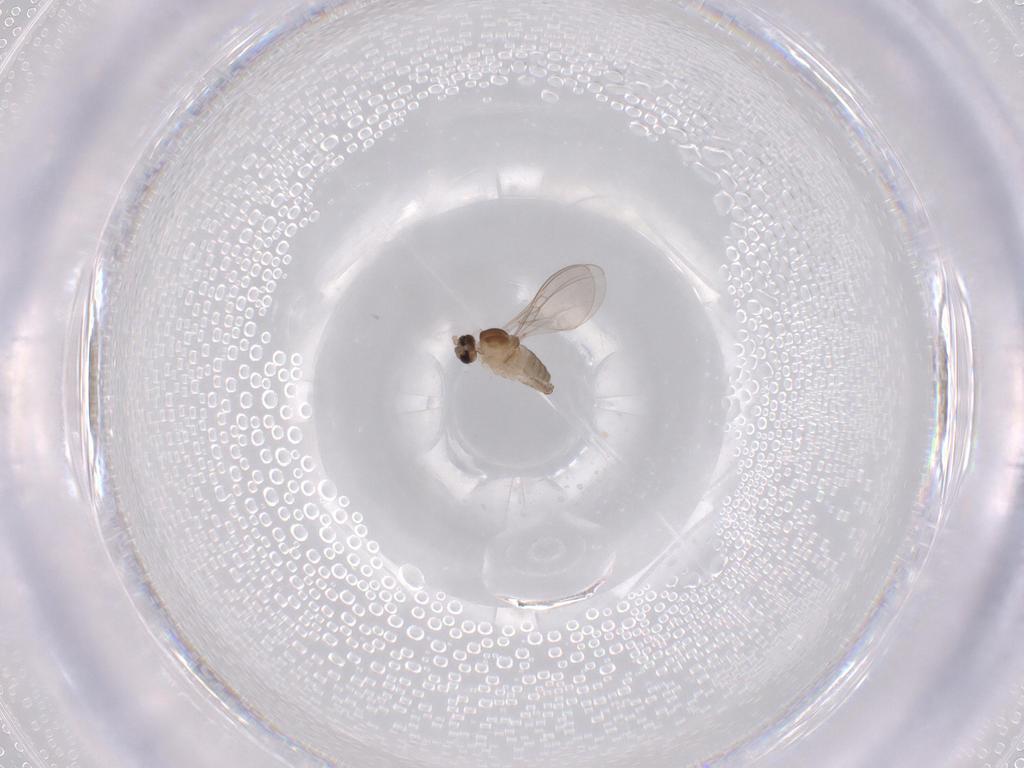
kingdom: Animalia
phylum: Arthropoda
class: Insecta
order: Diptera
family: Cecidomyiidae
